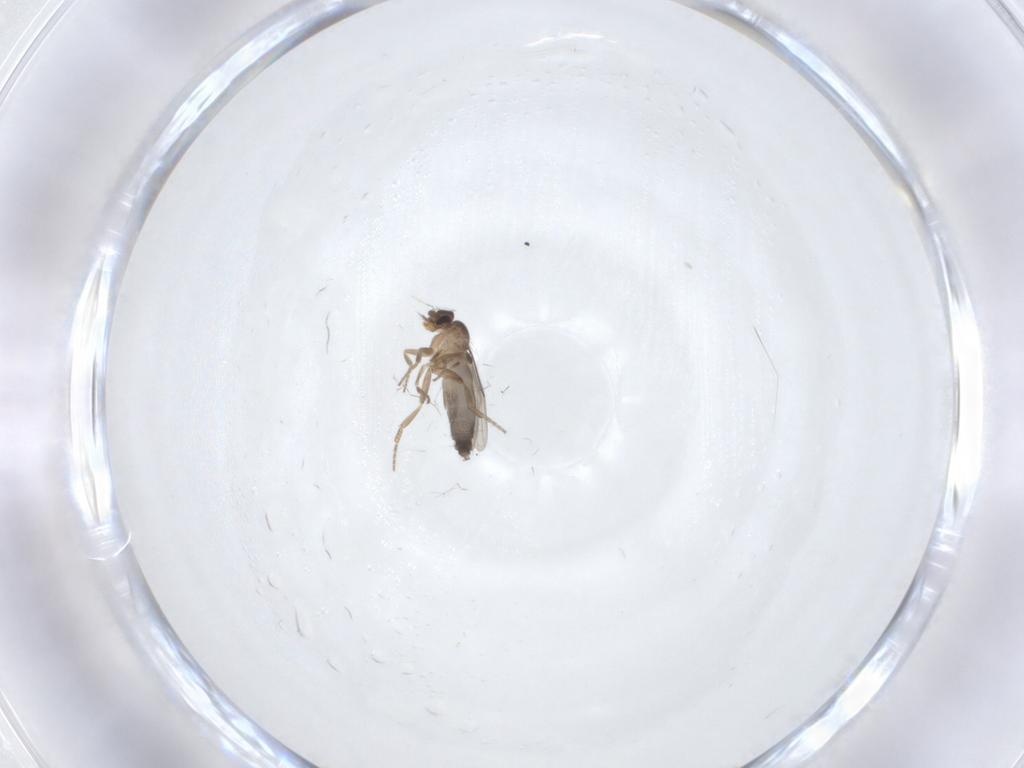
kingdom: Animalia
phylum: Arthropoda
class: Insecta
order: Diptera
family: Phoridae
